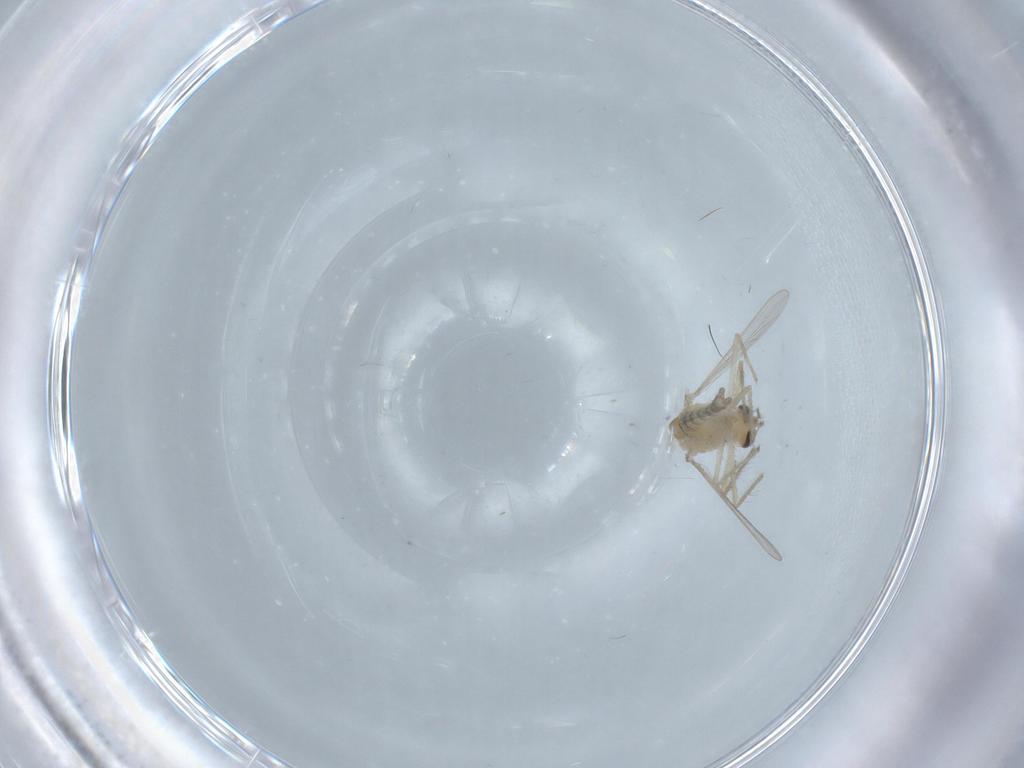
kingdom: Animalia
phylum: Arthropoda
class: Insecta
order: Diptera
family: Chironomidae
